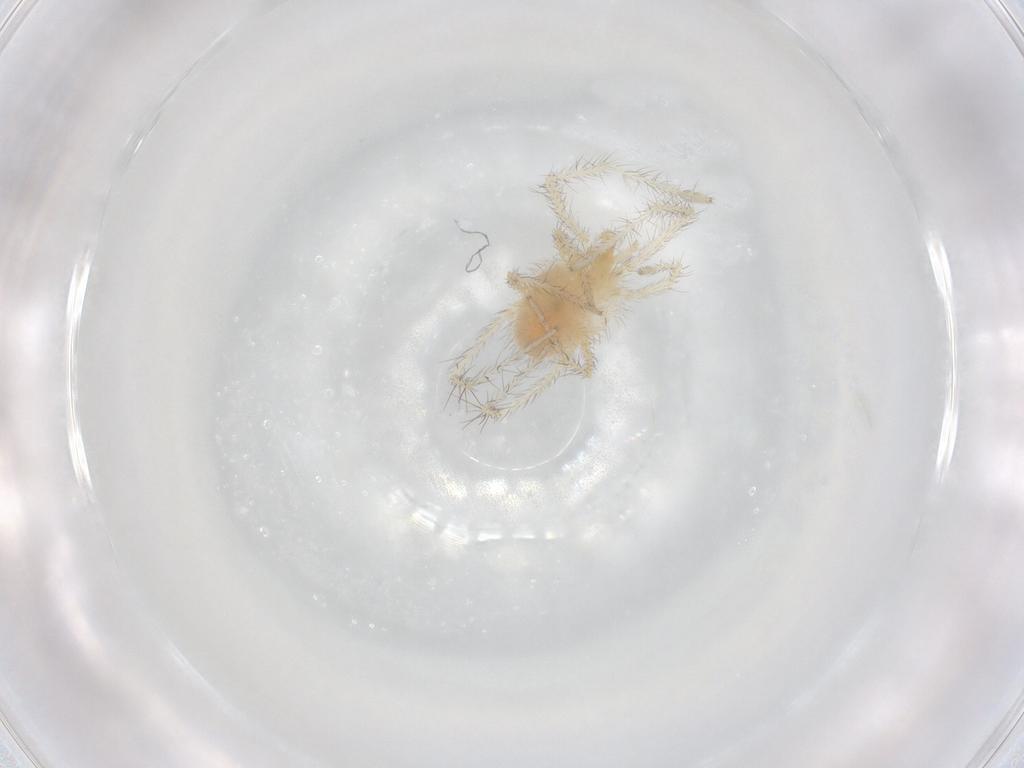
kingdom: Animalia
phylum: Arthropoda
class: Arachnida
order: Trombidiformes
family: Erythraeidae
